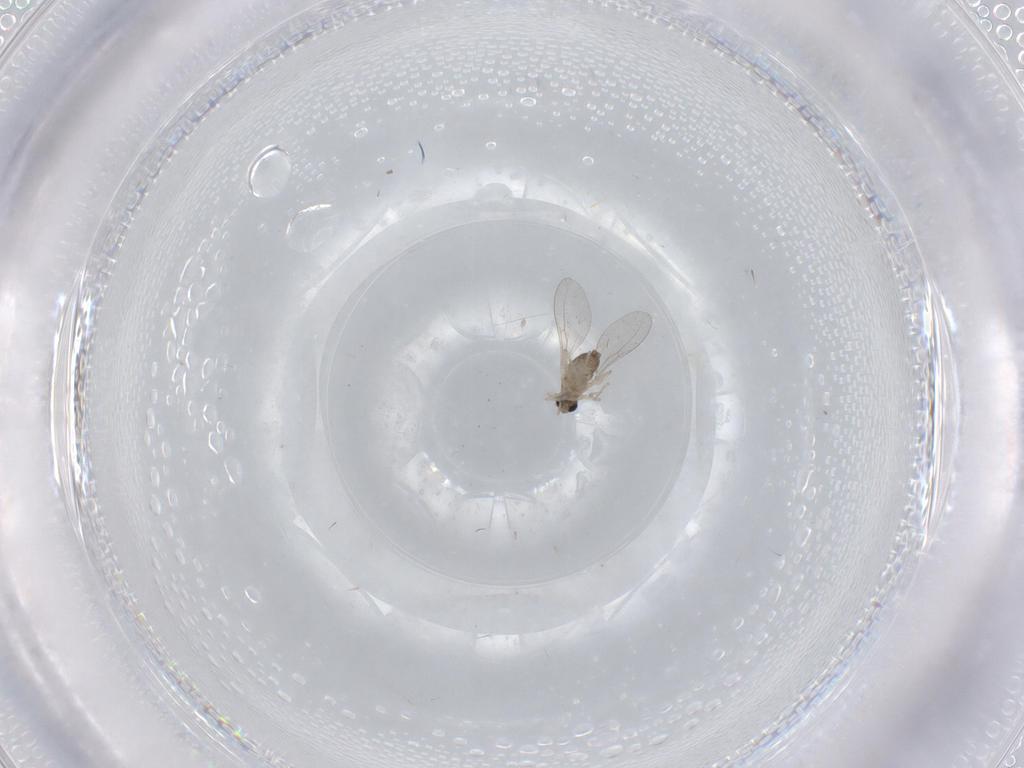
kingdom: Animalia
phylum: Arthropoda
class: Insecta
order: Diptera
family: Cecidomyiidae
